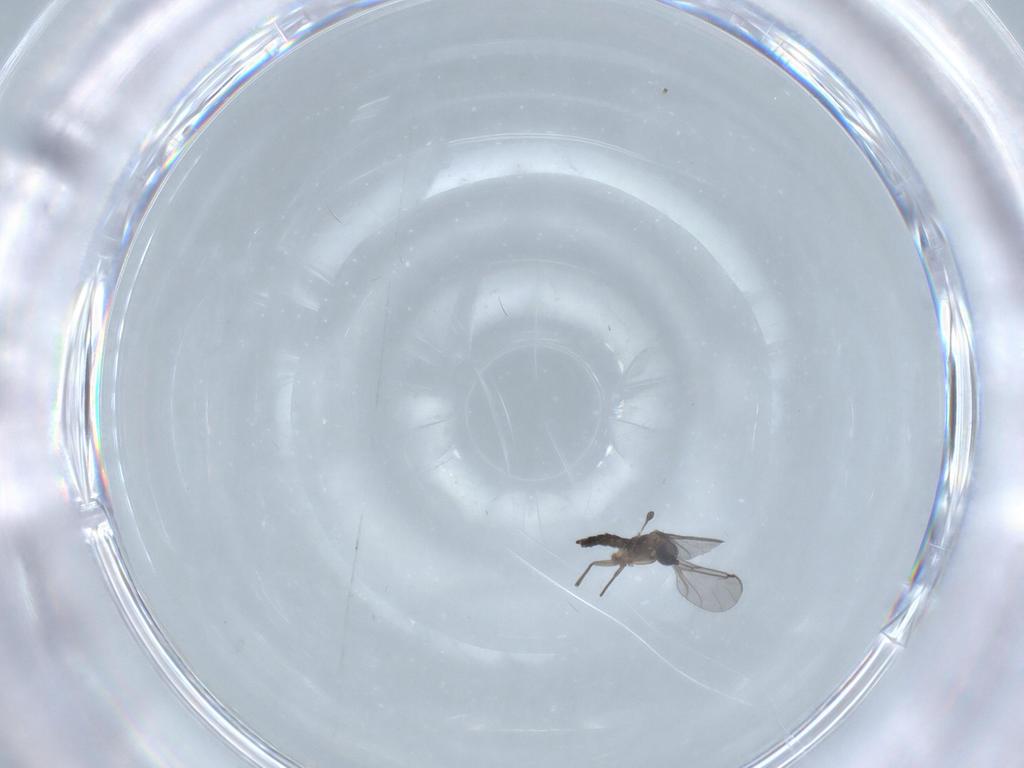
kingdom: Animalia
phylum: Arthropoda
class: Insecta
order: Diptera
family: Sciaridae
